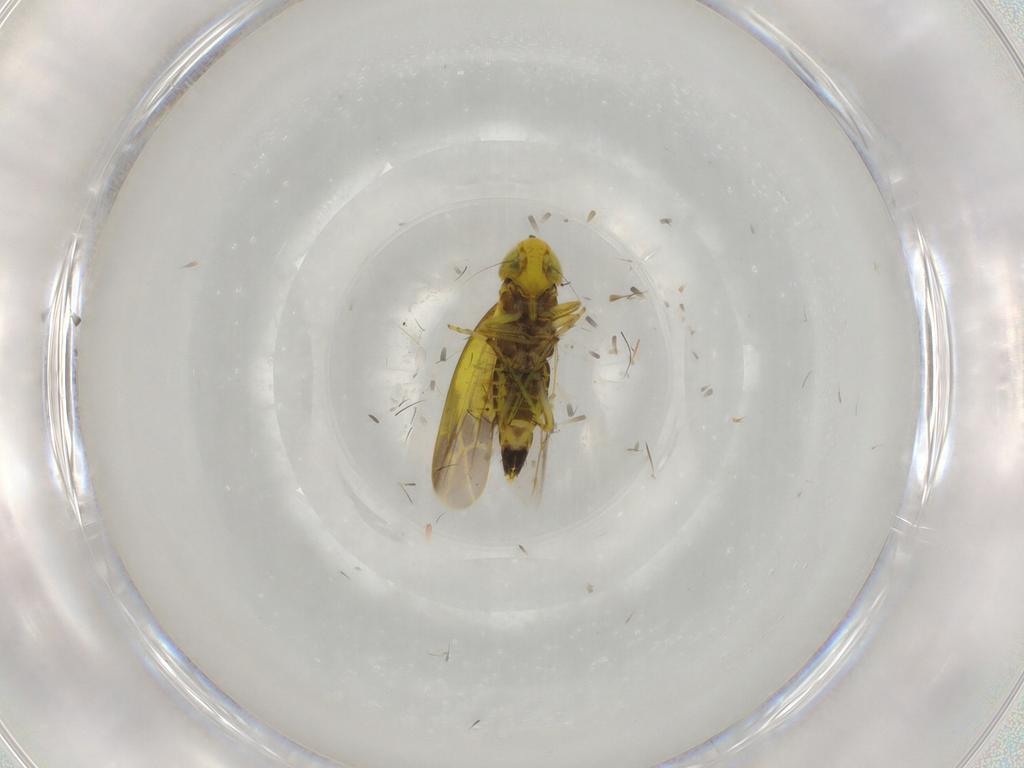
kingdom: Animalia
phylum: Arthropoda
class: Insecta
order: Hemiptera
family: Cicadellidae
